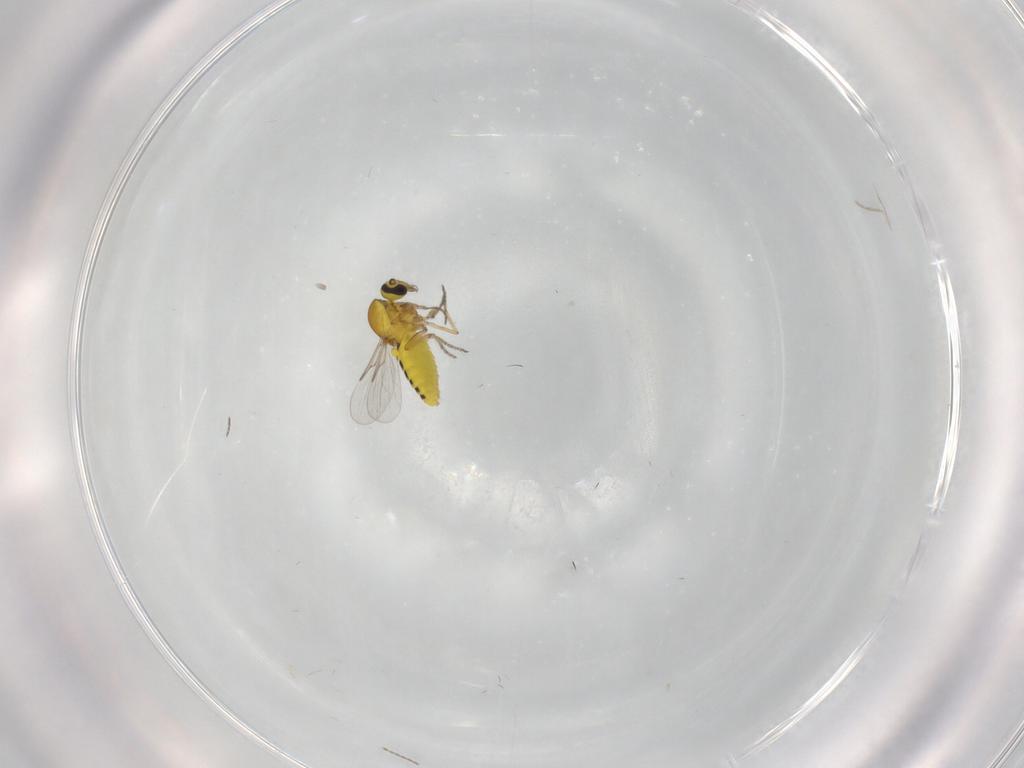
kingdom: Animalia
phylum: Arthropoda
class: Insecta
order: Diptera
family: Ceratopogonidae
